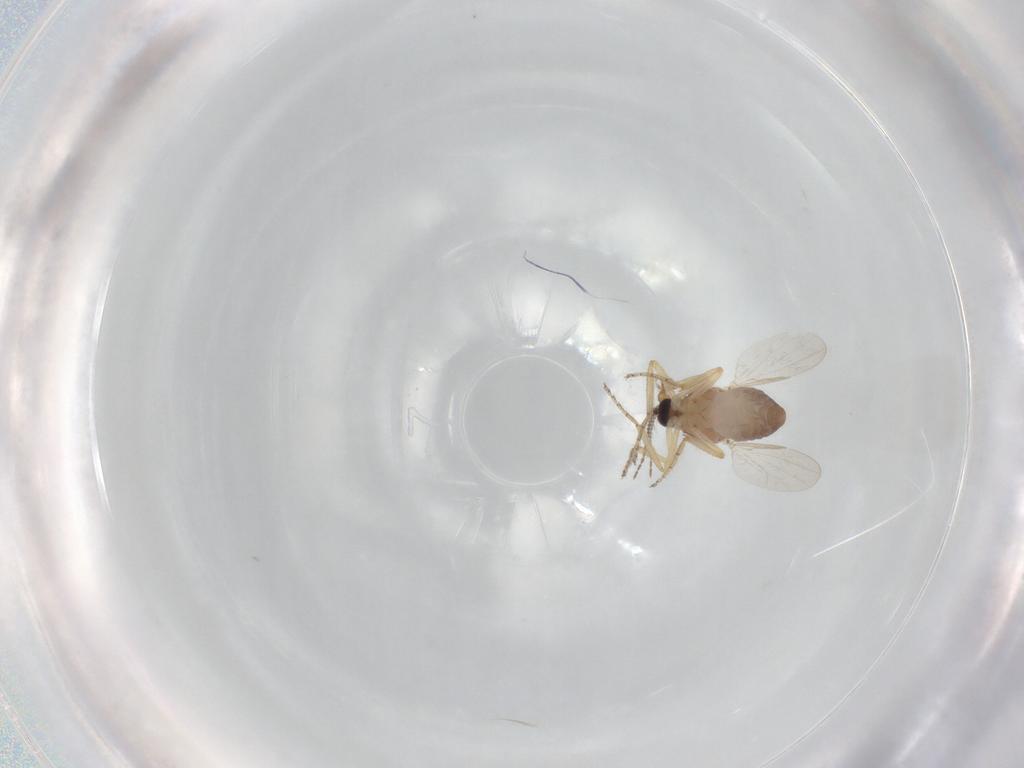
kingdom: Animalia
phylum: Arthropoda
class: Insecta
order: Diptera
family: Ceratopogonidae
